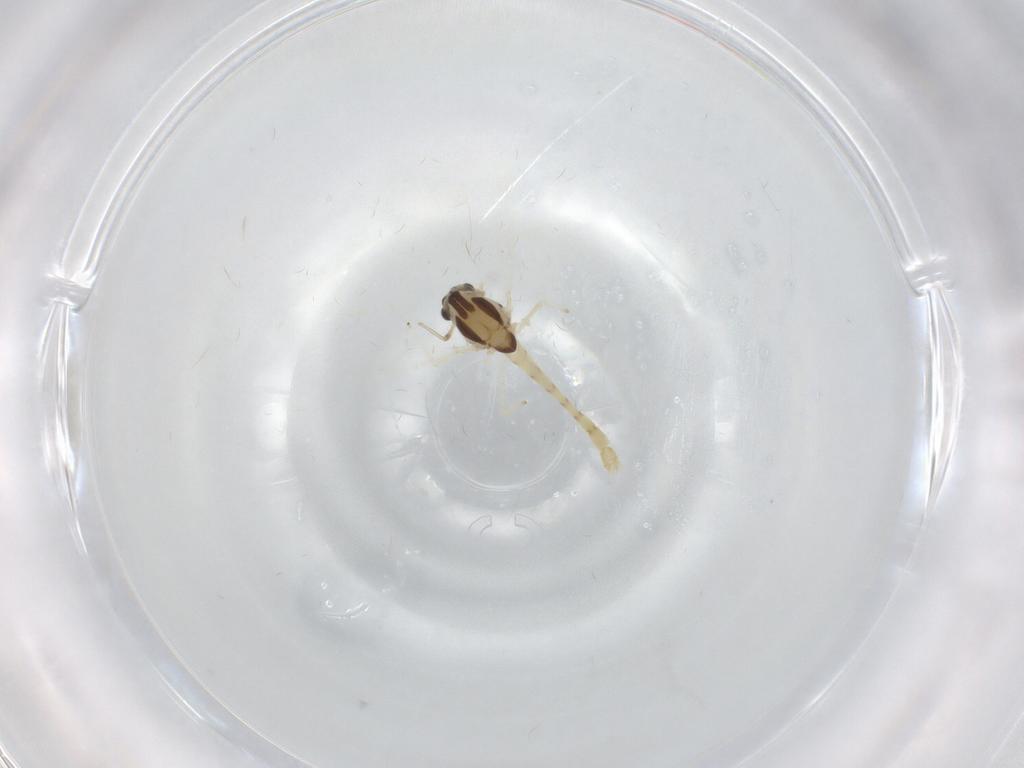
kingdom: Animalia
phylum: Arthropoda
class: Insecta
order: Diptera
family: Chironomidae
